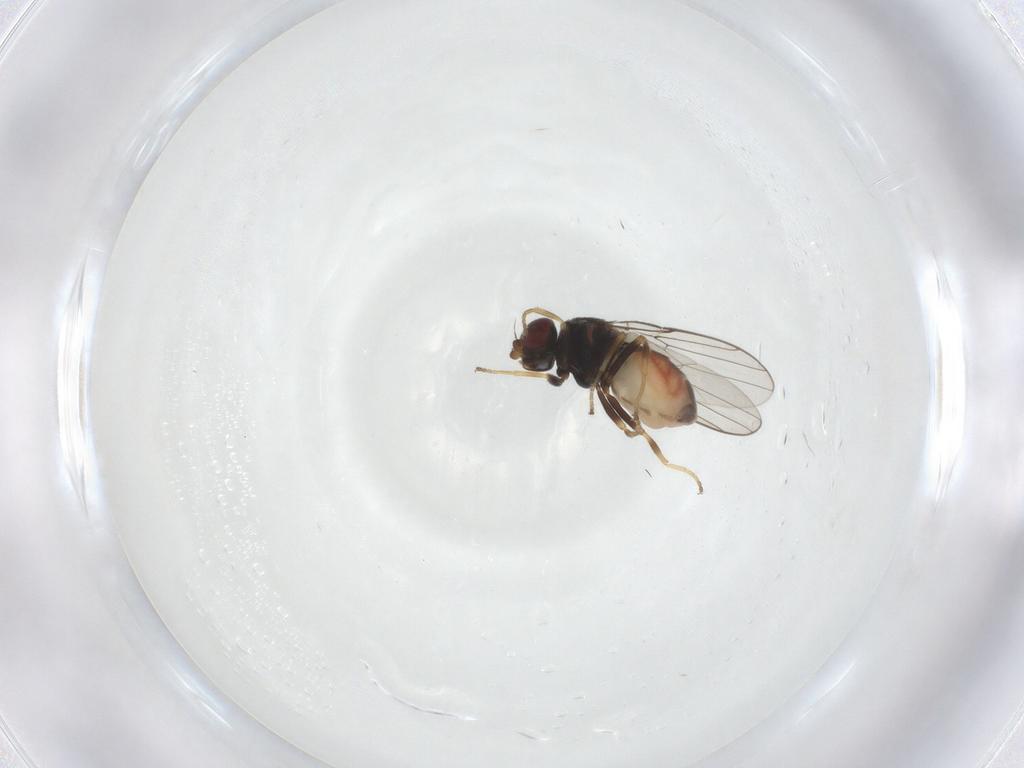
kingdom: Animalia
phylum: Arthropoda
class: Insecta
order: Diptera
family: Chloropidae
